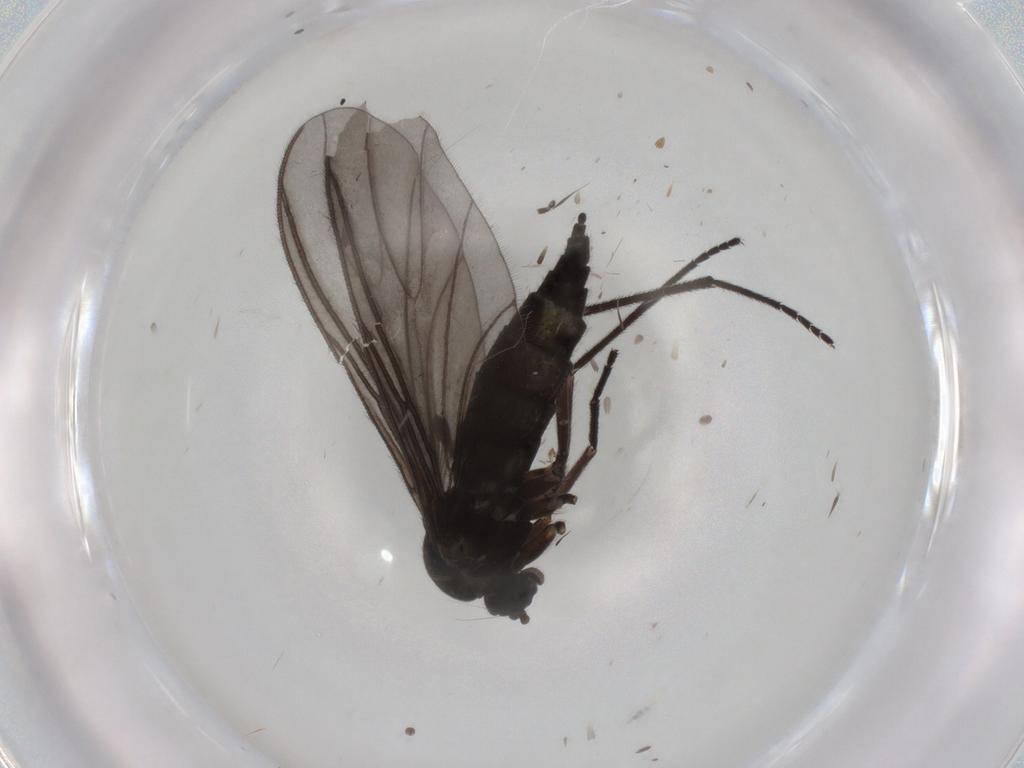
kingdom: Animalia
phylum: Arthropoda
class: Insecta
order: Diptera
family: Sciaridae
